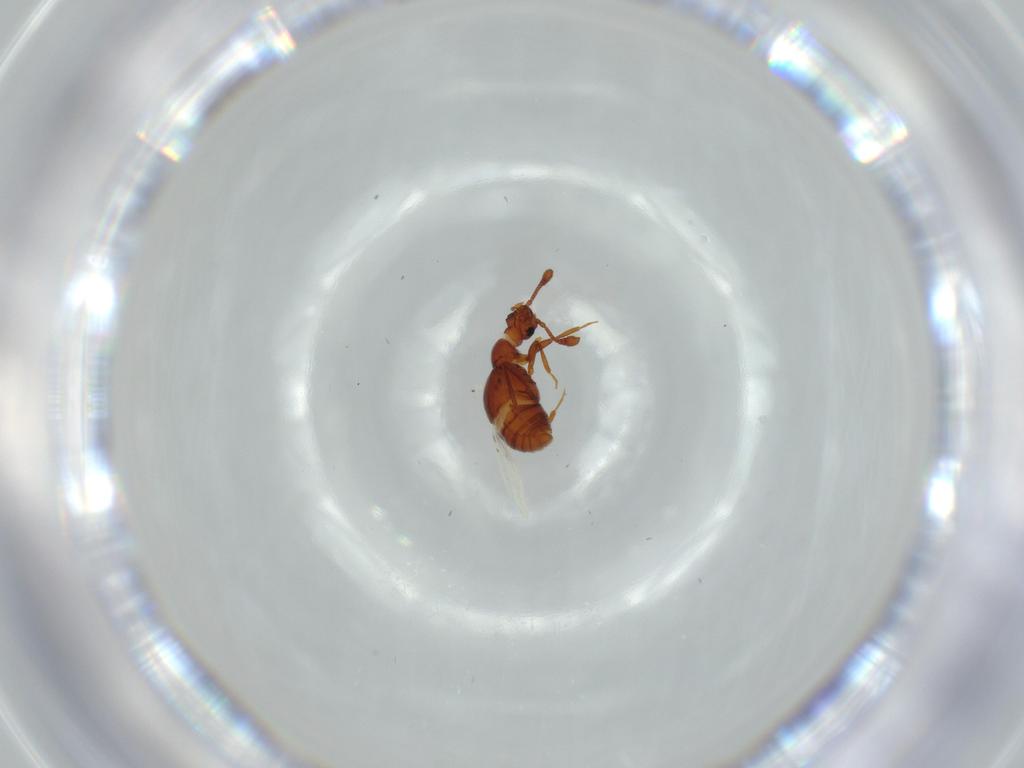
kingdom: Animalia
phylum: Arthropoda
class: Insecta
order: Coleoptera
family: Staphylinidae
